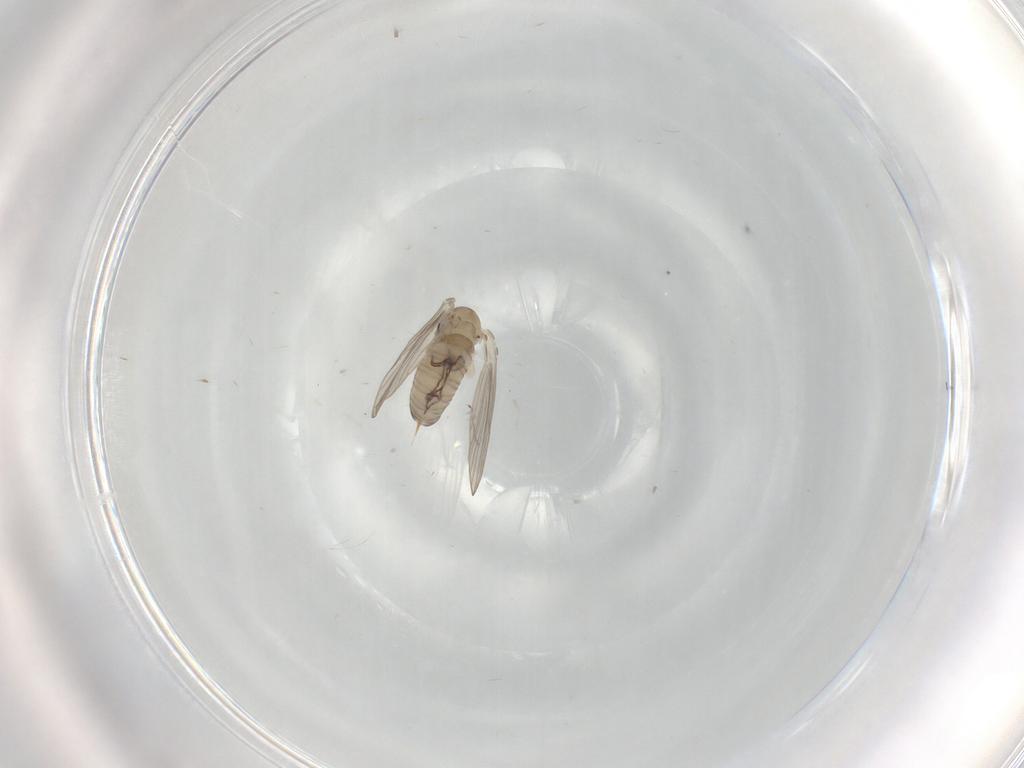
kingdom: Animalia
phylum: Arthropoda
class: Insecta
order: Diptera
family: Psychodidae
